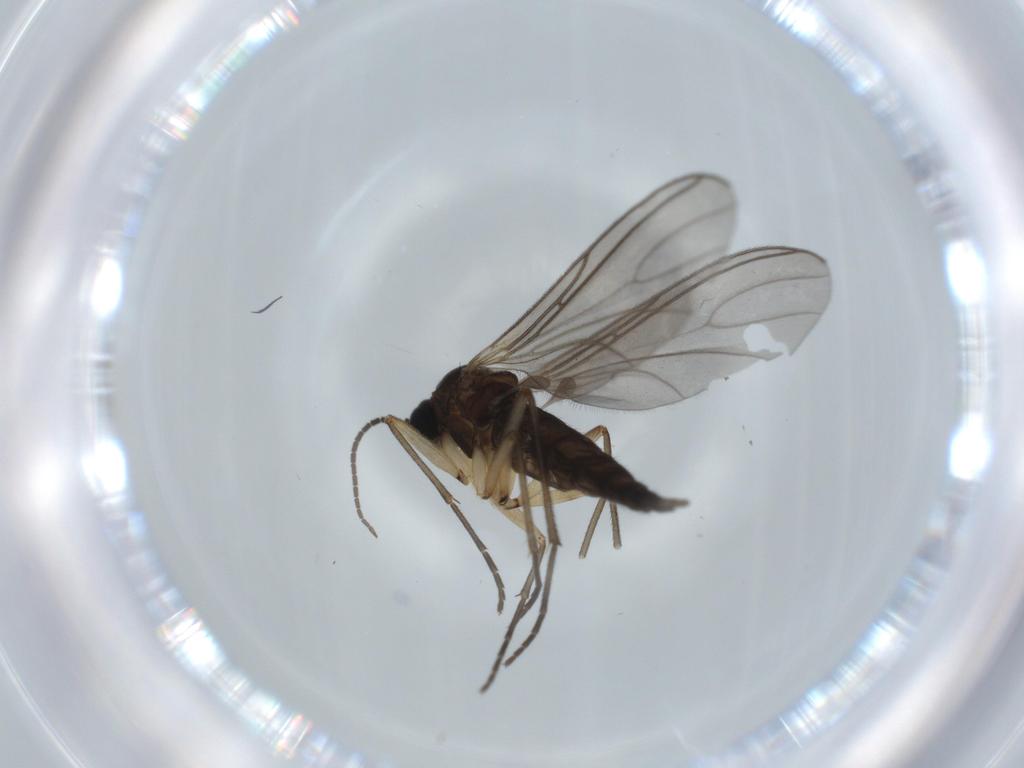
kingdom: Animalia
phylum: Arthropoda
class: Insecta
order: Diptera
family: Sciaridae
